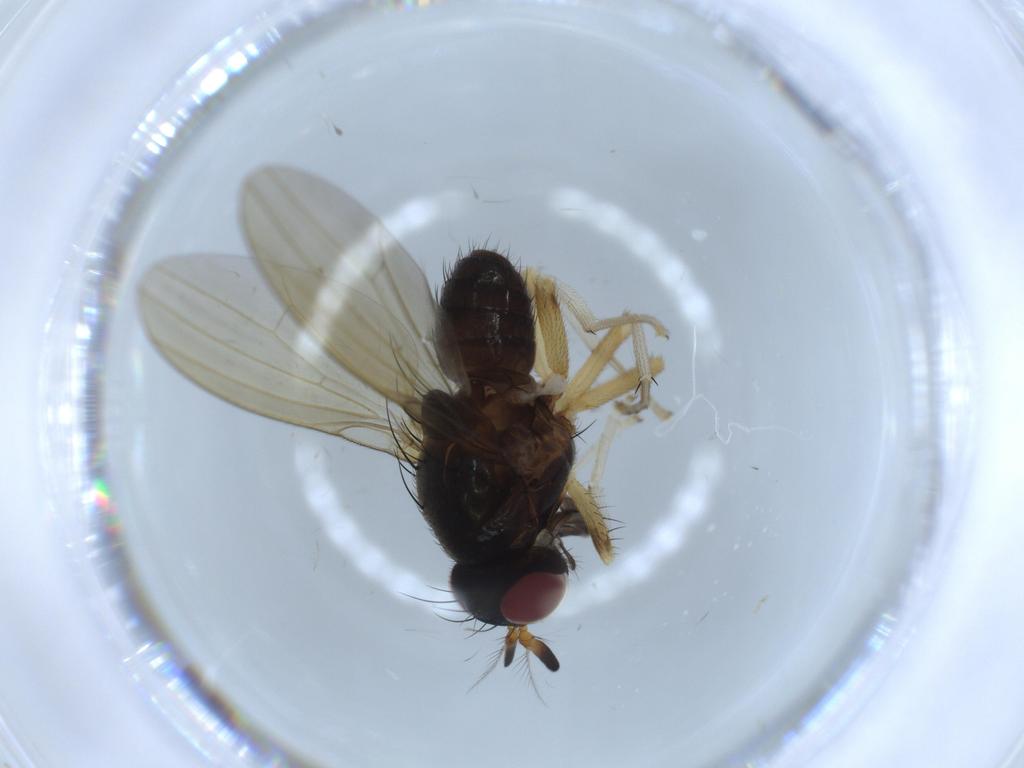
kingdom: Animalia
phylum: Arthropoda
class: Insecta
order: Diptera
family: Lauxaniidae
